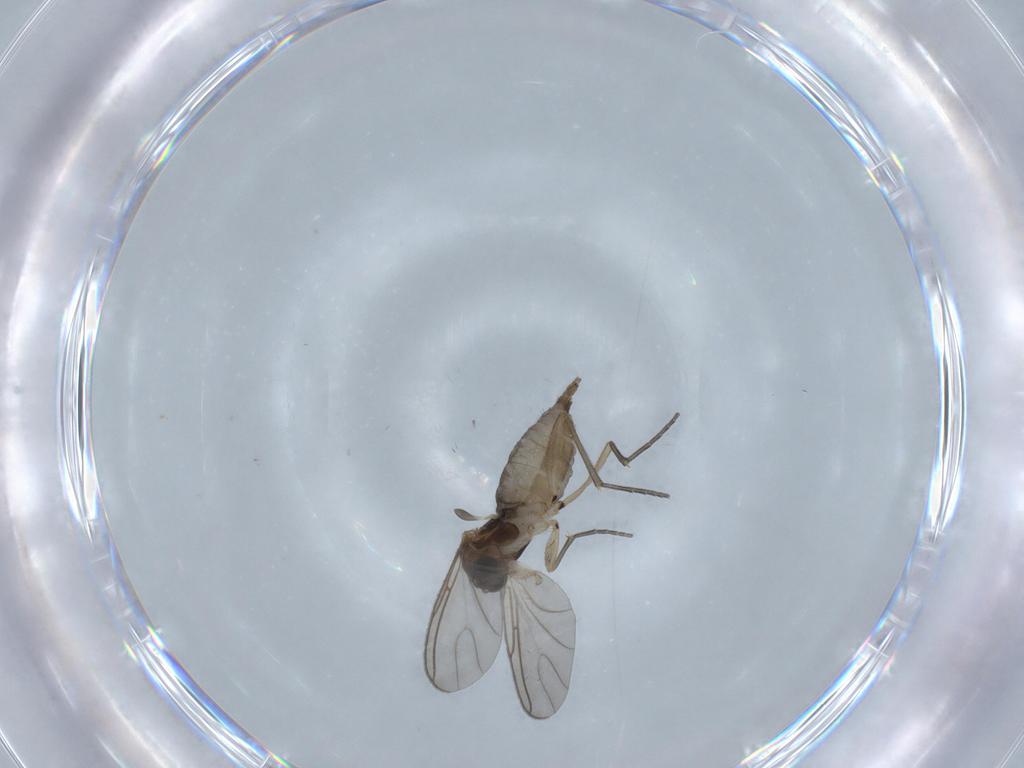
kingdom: Animalia
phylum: Arthropoda
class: Insecta
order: Diptera
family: Sciaridae
